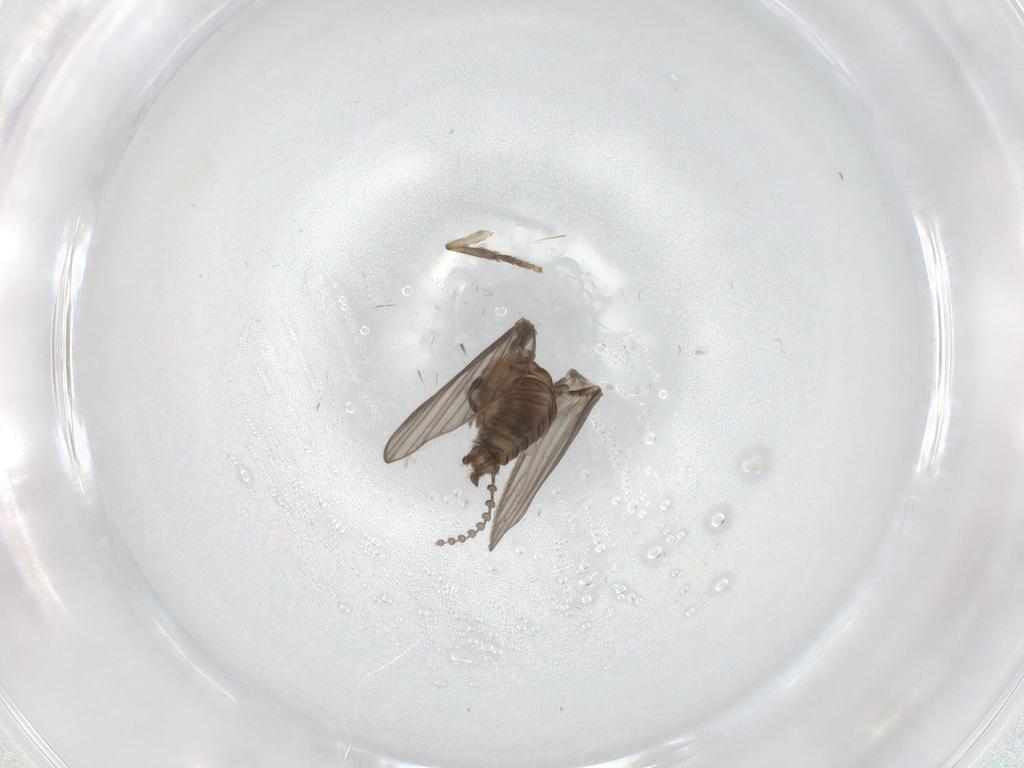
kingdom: Animalia
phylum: Arthropoda
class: Insecta
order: Diptera
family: Psychodidae
